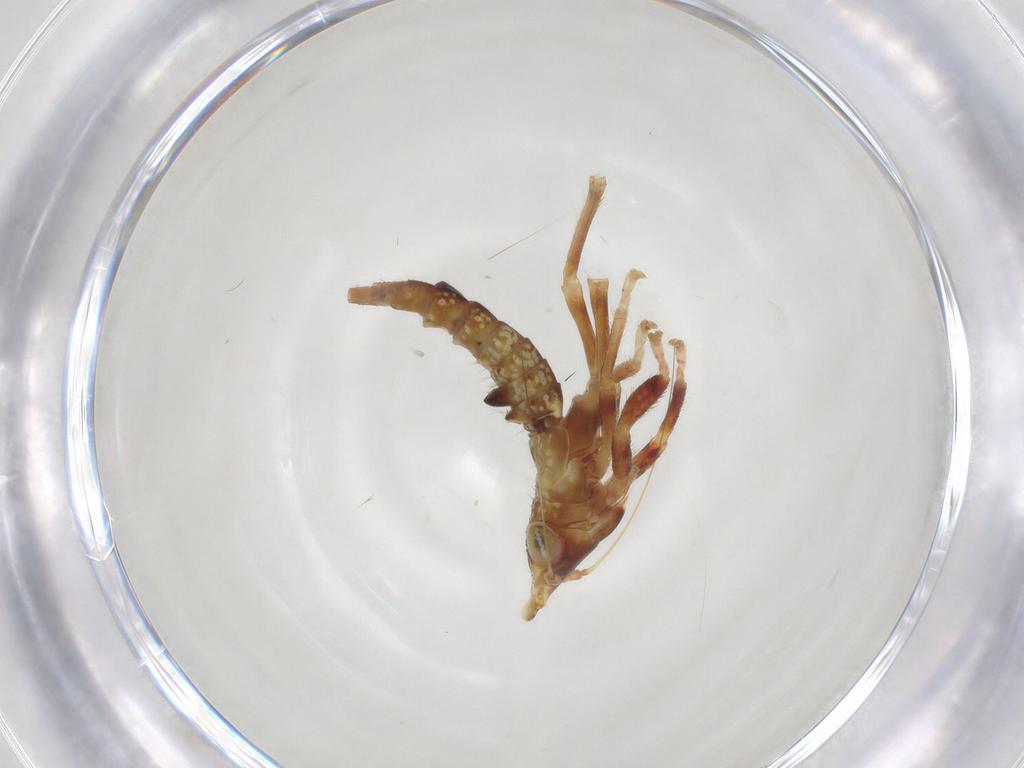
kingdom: Animalia
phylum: Arthropoda
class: Insecta
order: Hemiptera
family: Cicadellidae
